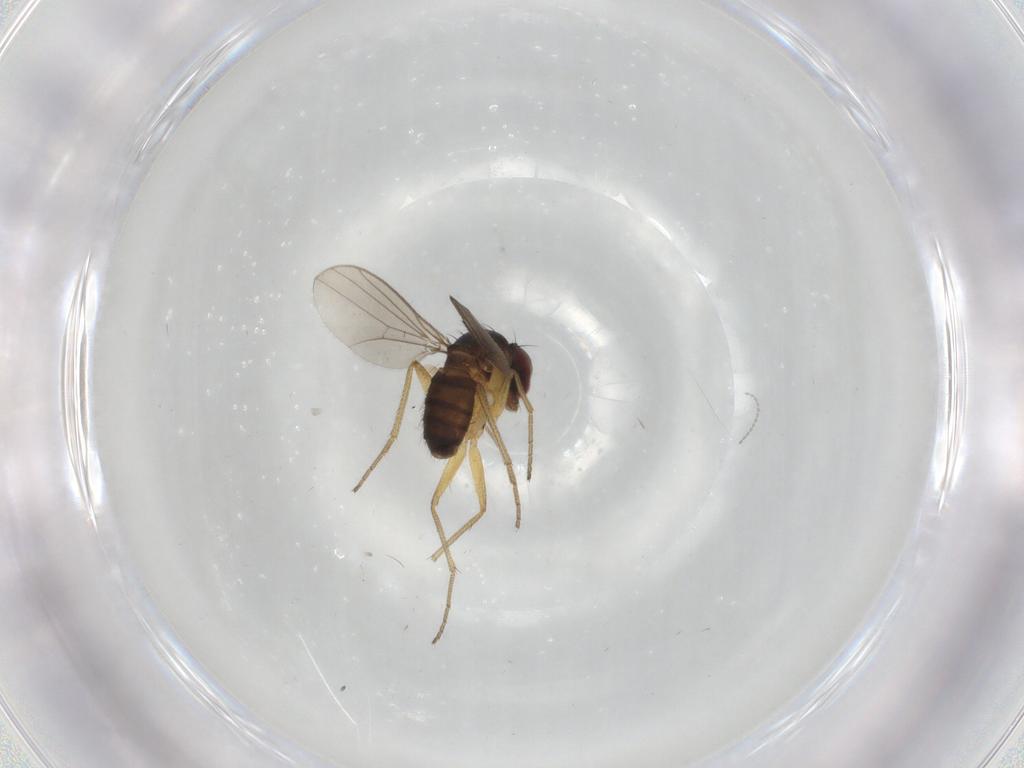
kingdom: Animalia
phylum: Arthropoda
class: Insecta
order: Diptera
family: Dolichopodidae
